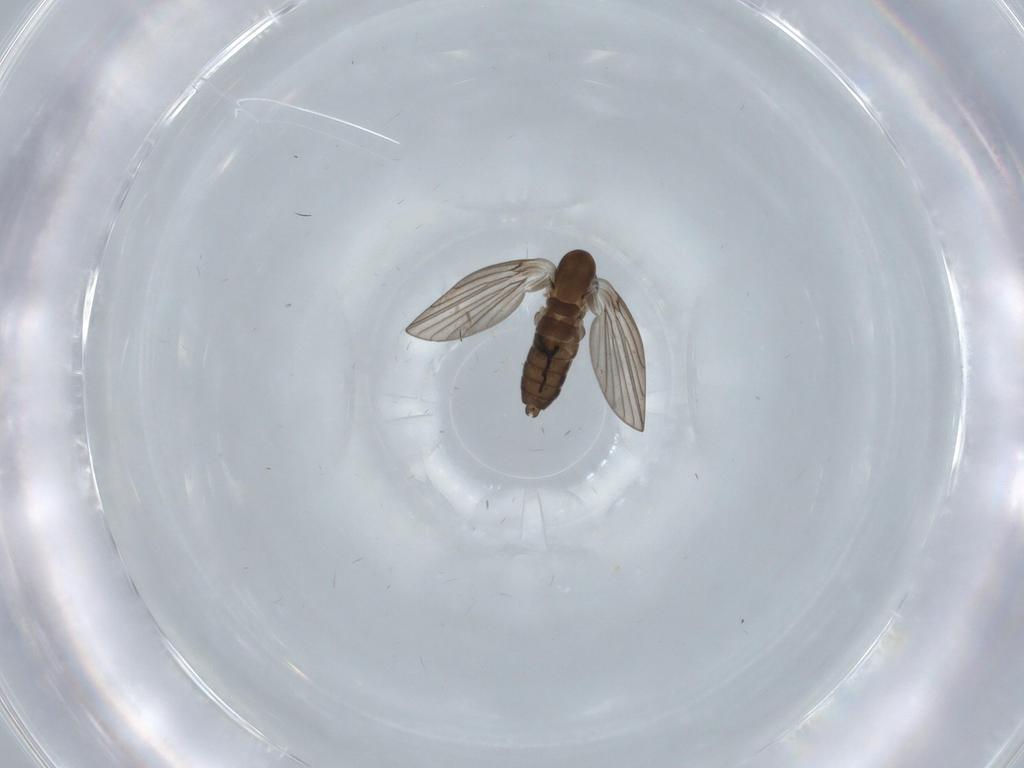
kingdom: Animalia
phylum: Arthropoda
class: Insecta
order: Diptera
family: Psychodidae
